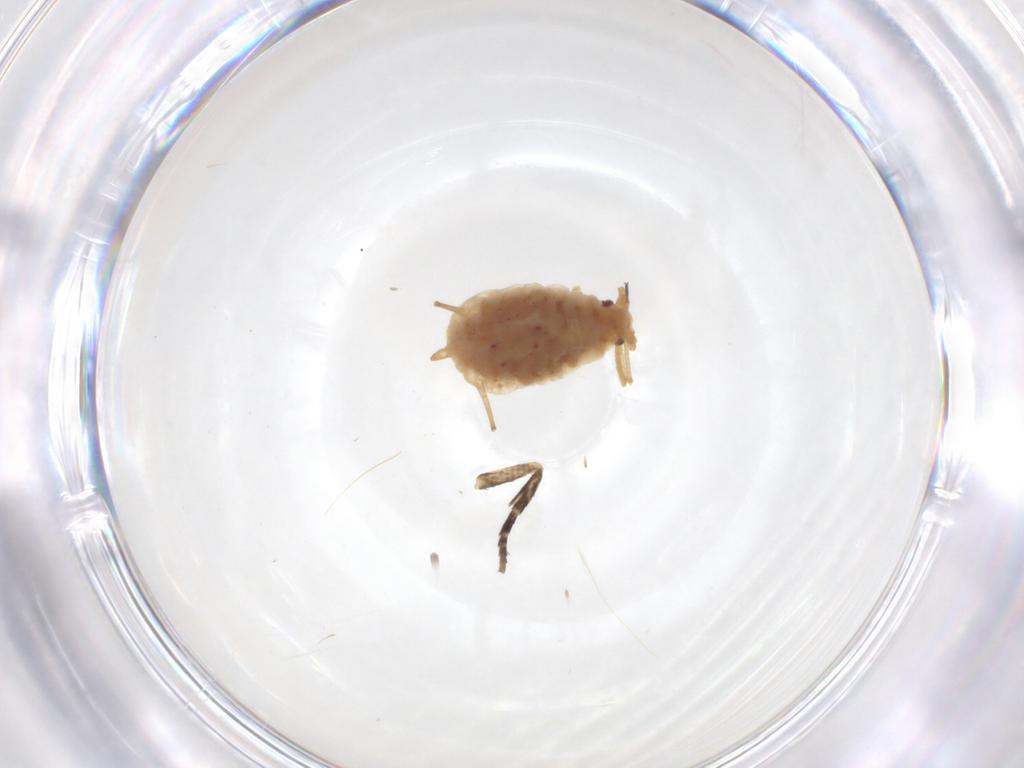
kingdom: Animalia
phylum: Arthropoda
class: Insecta
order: Hemiptera
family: Aphididae
